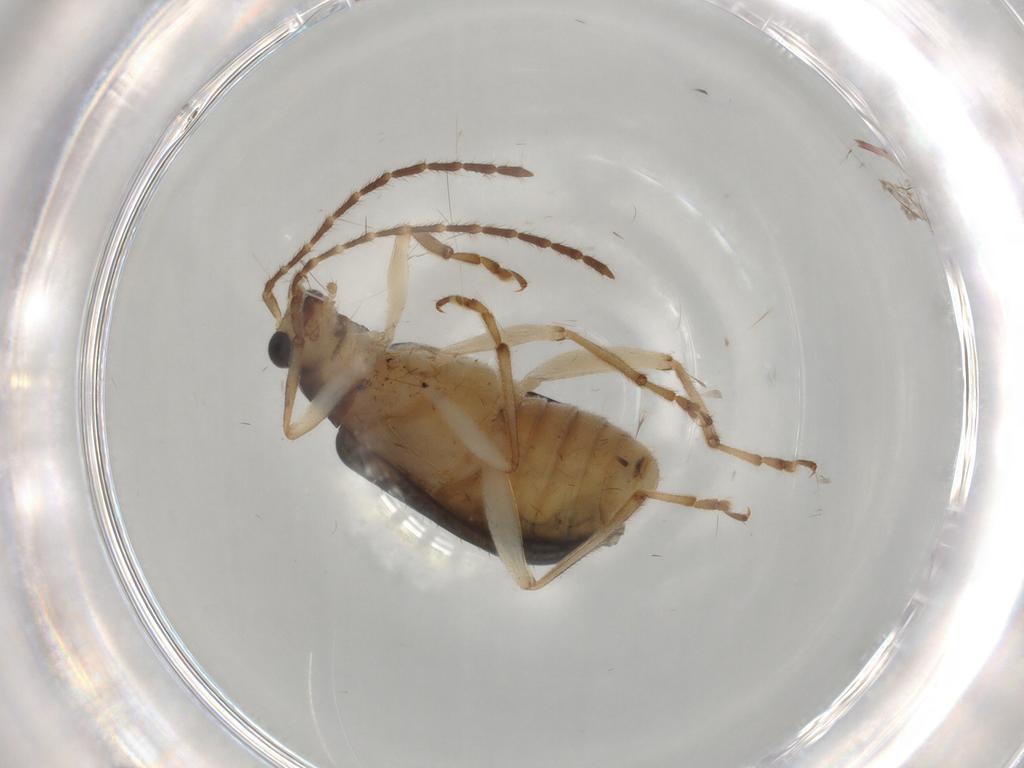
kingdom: Animalia
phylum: Arthropoda
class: Insecta
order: Coleoptera
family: Chrysomelidae
